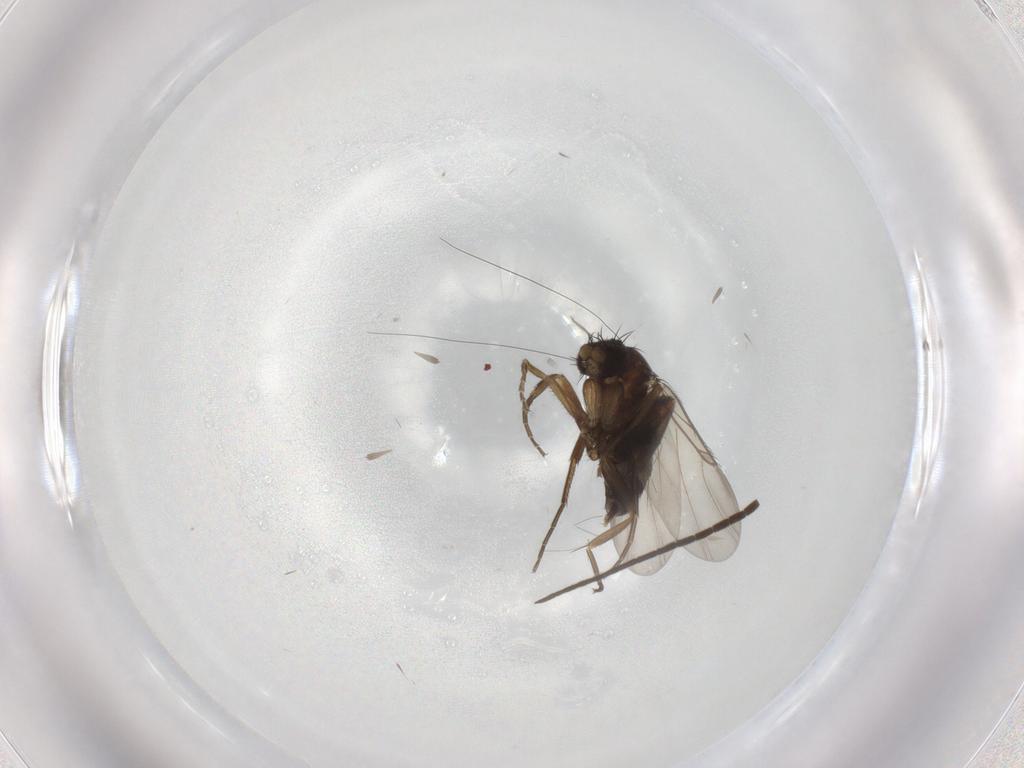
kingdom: Animalia
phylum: Arthropoda
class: Insecta
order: Diptera
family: Phoridae
